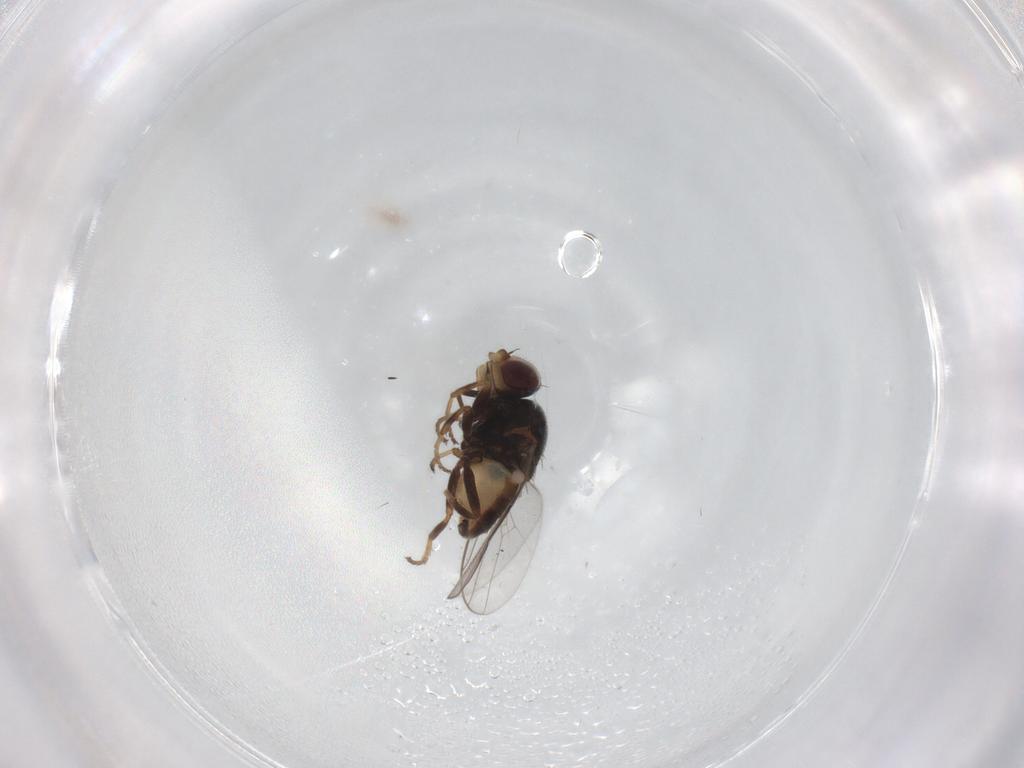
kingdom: Animalia
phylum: Arthropoda
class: Insecta
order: Diptera
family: Chloropidae
